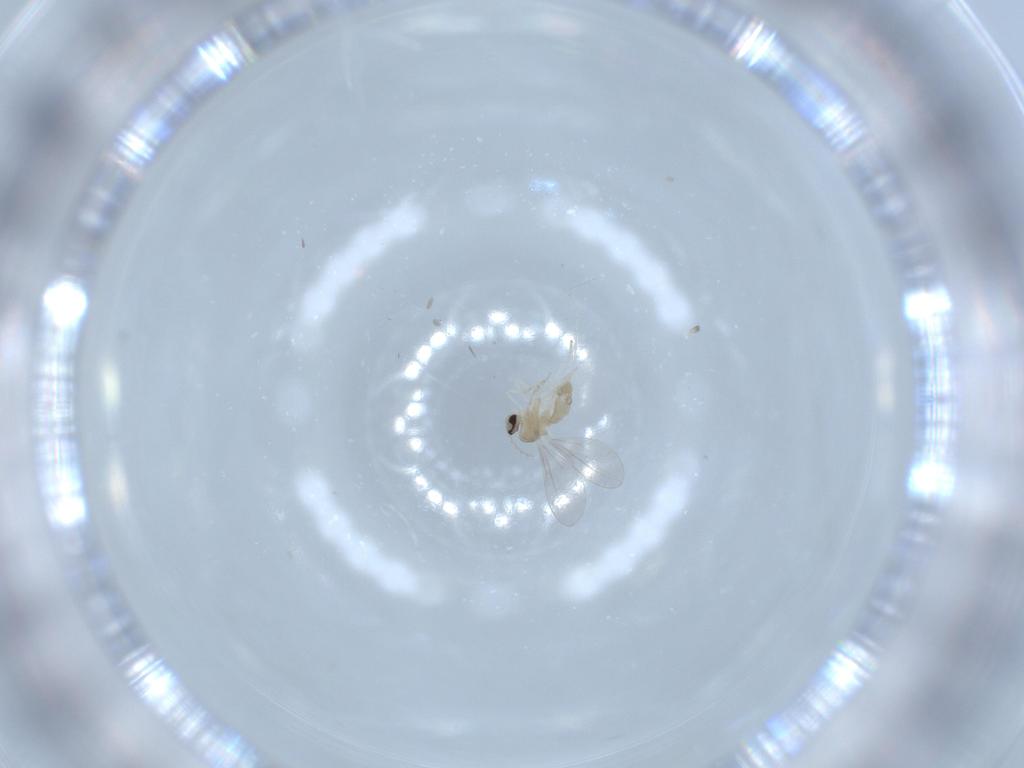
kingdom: Animalia
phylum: Arthropoda
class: Insecta
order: Diptera
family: Cecidomyiidae
